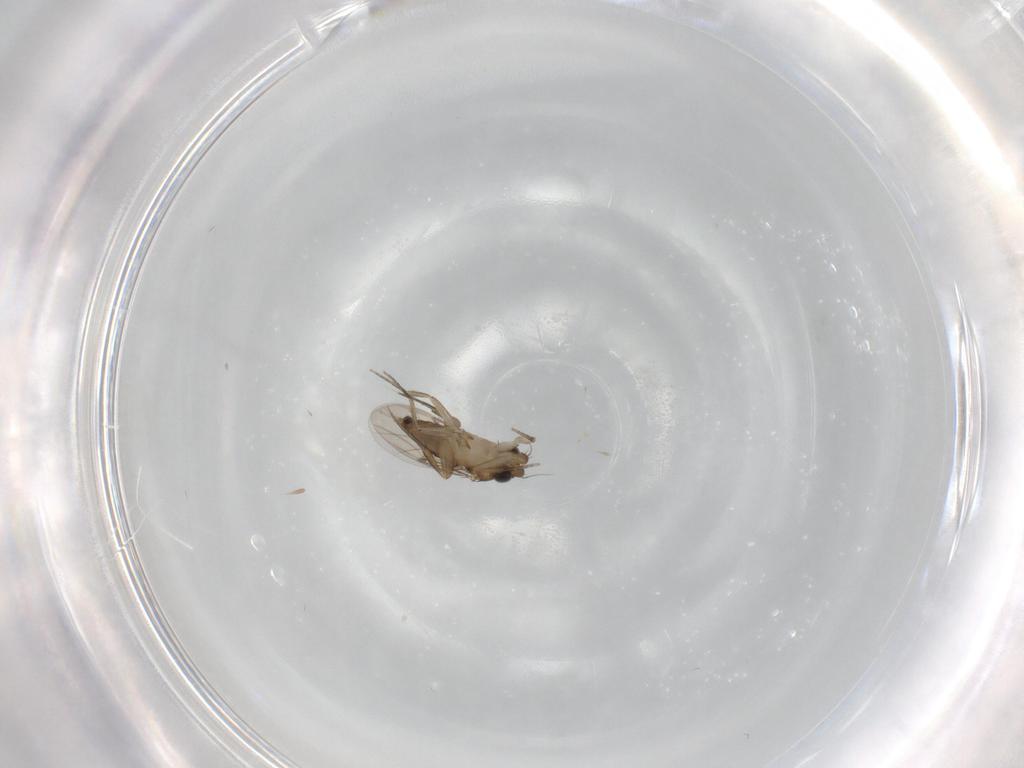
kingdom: Animalia
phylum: Arthropoda
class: Insecta
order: Diptera
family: Phoridae
